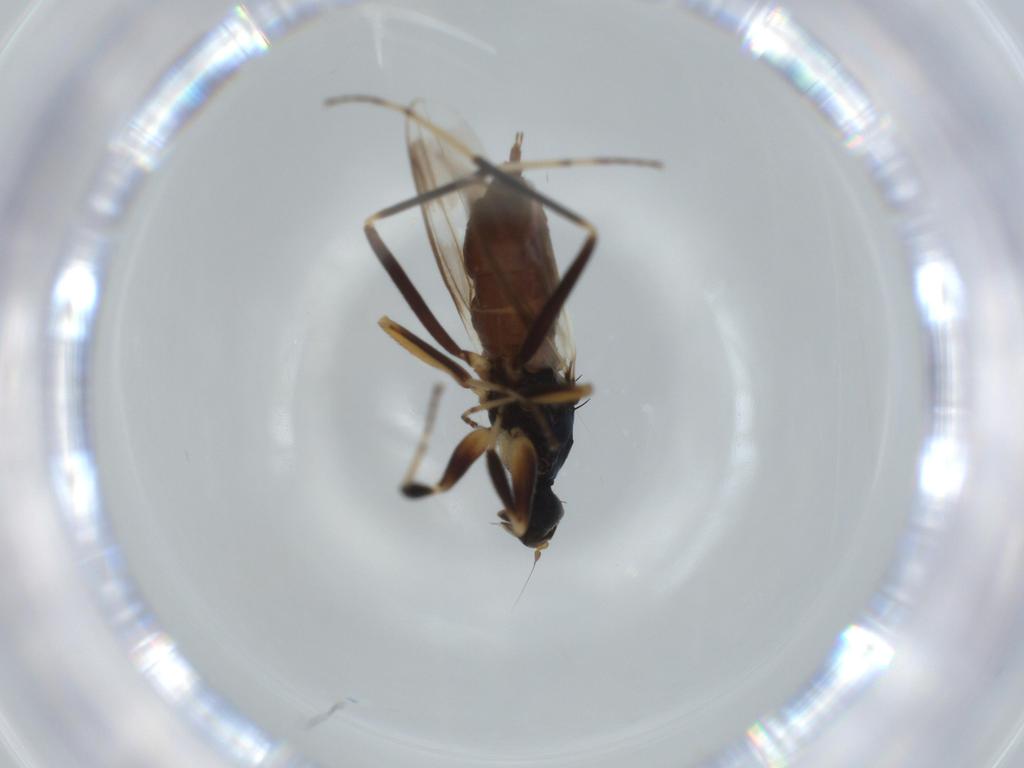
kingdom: Animalia
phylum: Arthropoda
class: Insecta
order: Diptera
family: Hybotidae
